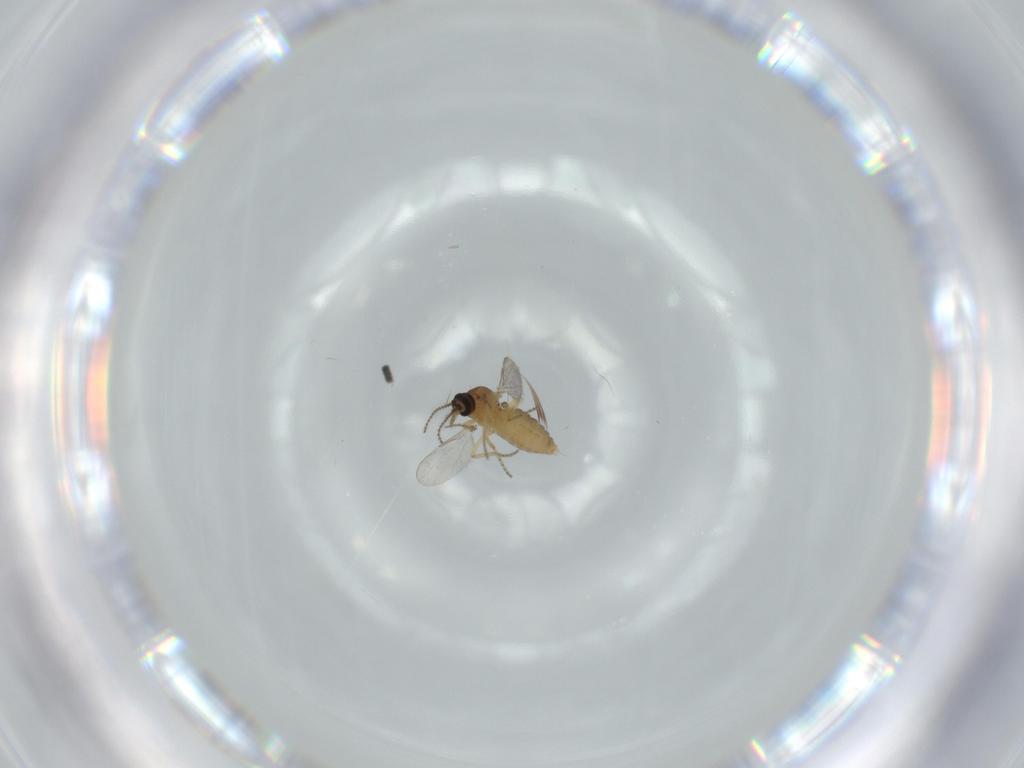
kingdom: Animalia
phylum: Arthropoda
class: Insecta
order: Diptera
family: Ceratopogonidae
